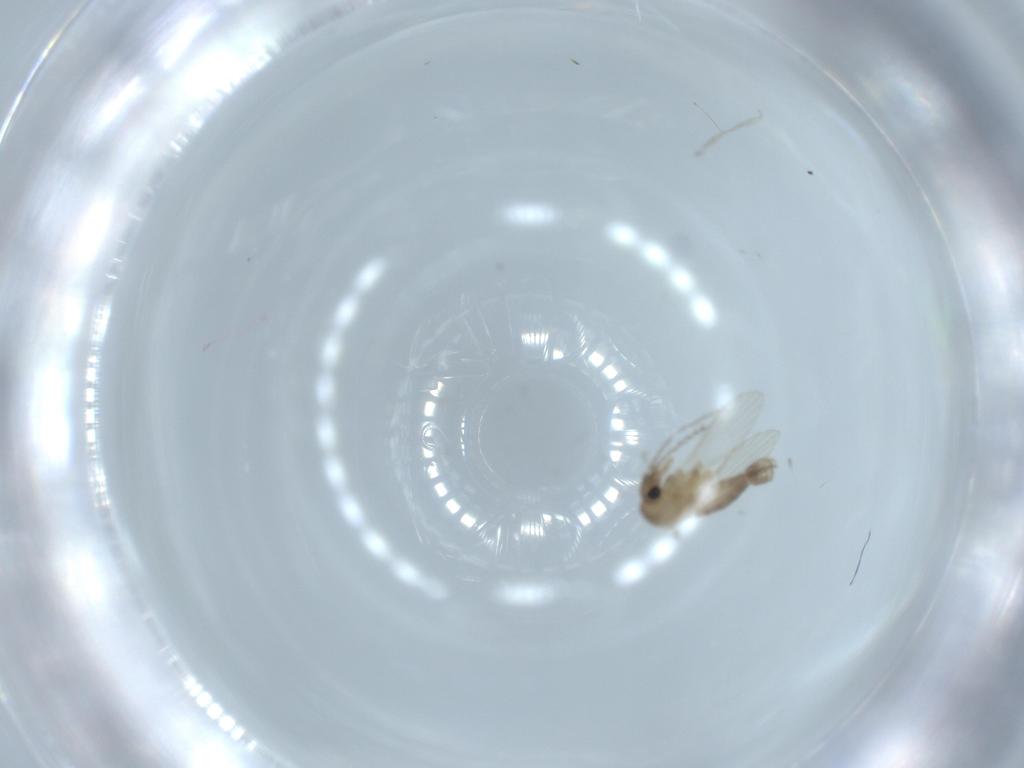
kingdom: Animalia
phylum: Arthropoda
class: Insecta
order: Diptera
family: Psychodidae
